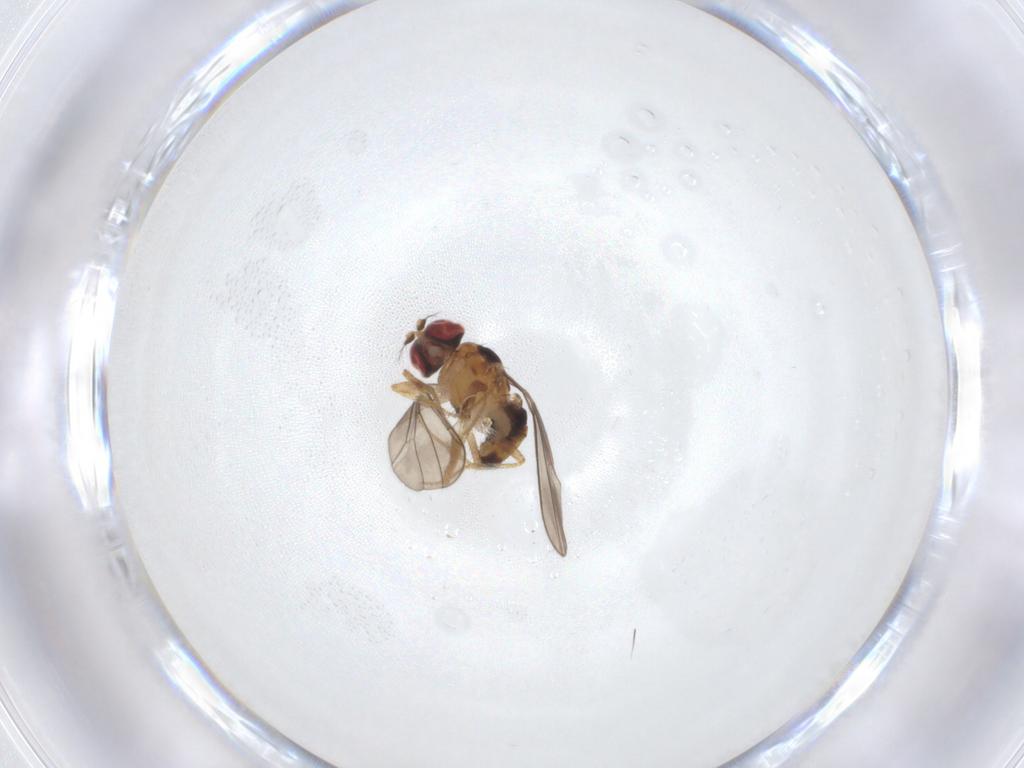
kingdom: Animalia
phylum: Arthropoda
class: Insecta
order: Diptera
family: Drosophilidae
